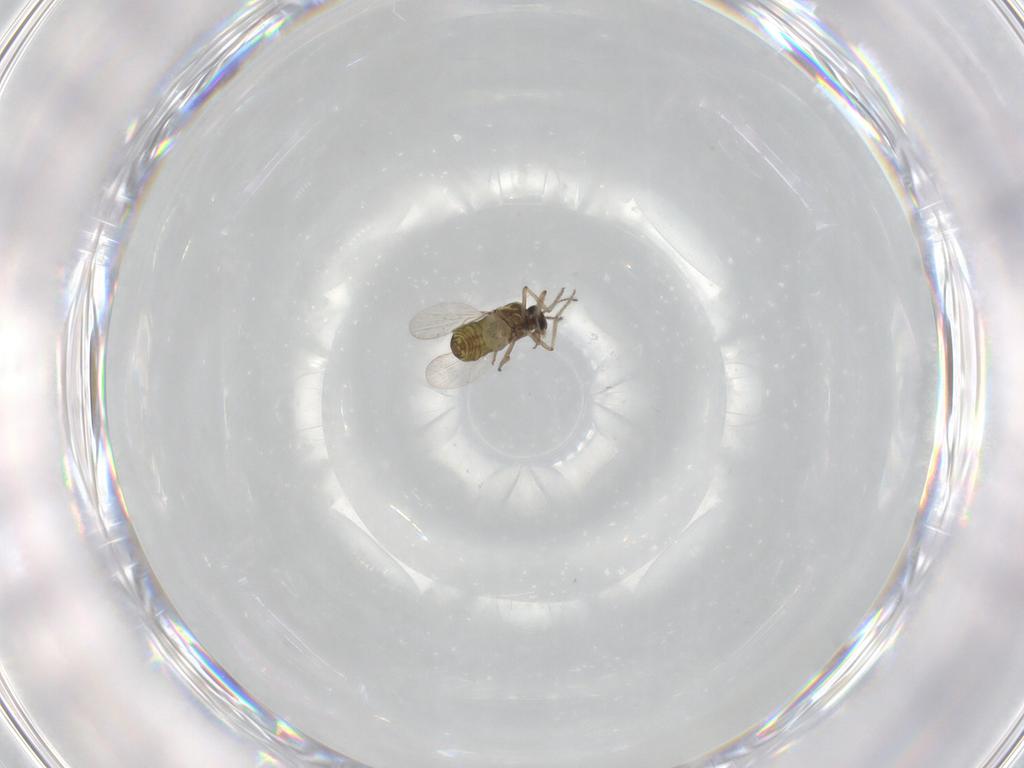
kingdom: Animalia
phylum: Arthropoda
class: Insecta
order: Diptera
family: Ceratopogonidae
